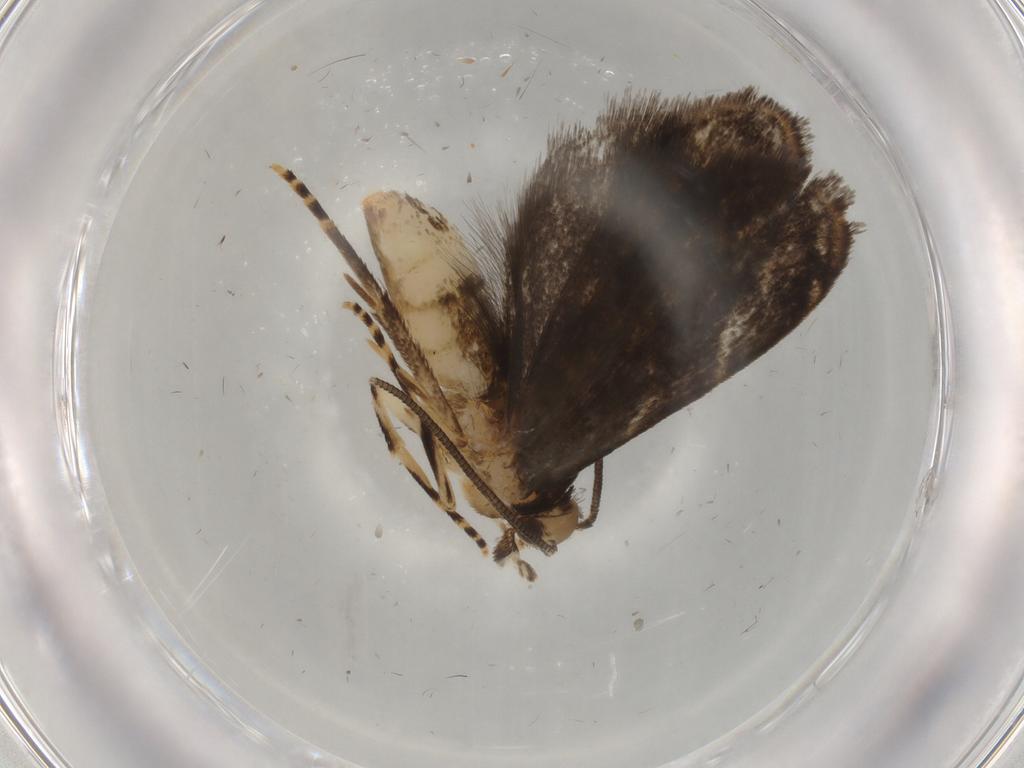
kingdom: Animalia
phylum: Arthropoda
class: Insecta
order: Lepidoptera
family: Dryadaulidae
